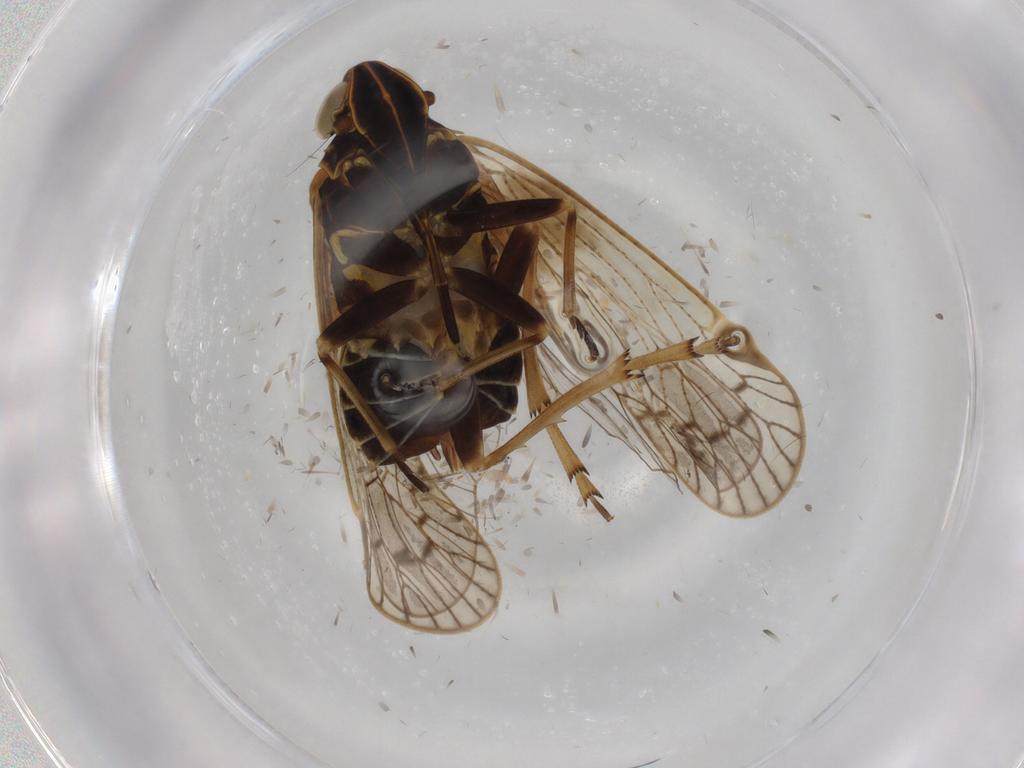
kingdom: Animalia
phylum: Arthropoda
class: Insecta
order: Hemiptera
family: Cixiidae
